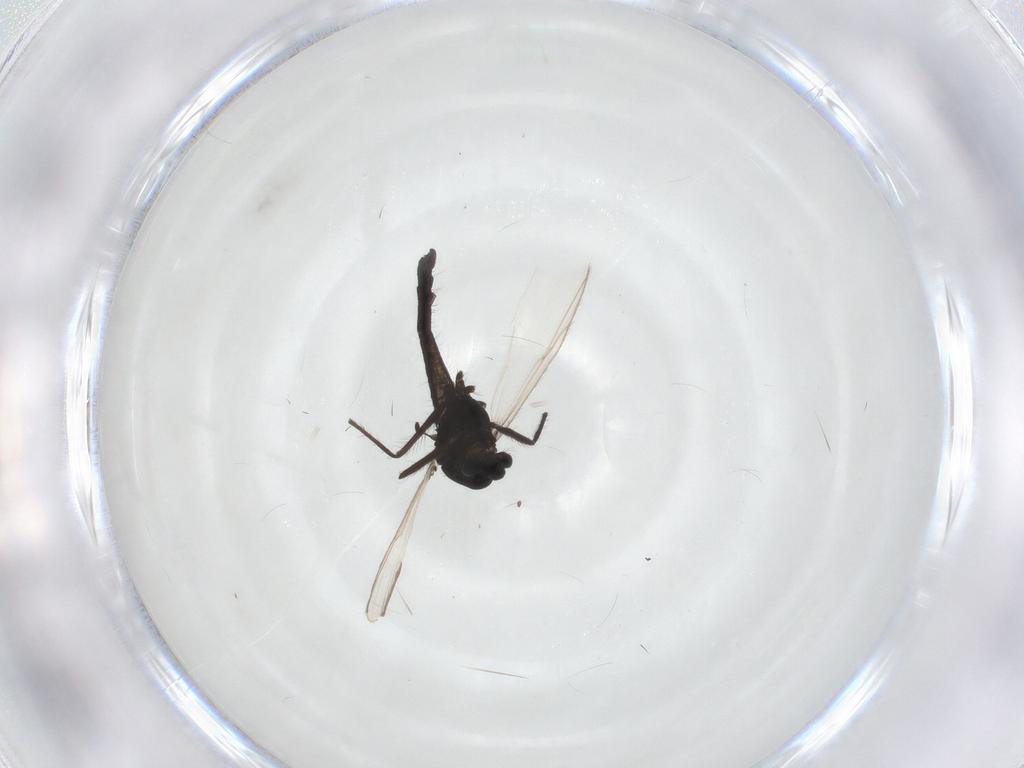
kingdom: Animalia
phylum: Arthropoda
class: Insecta
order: Diptera
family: Chironomidae
